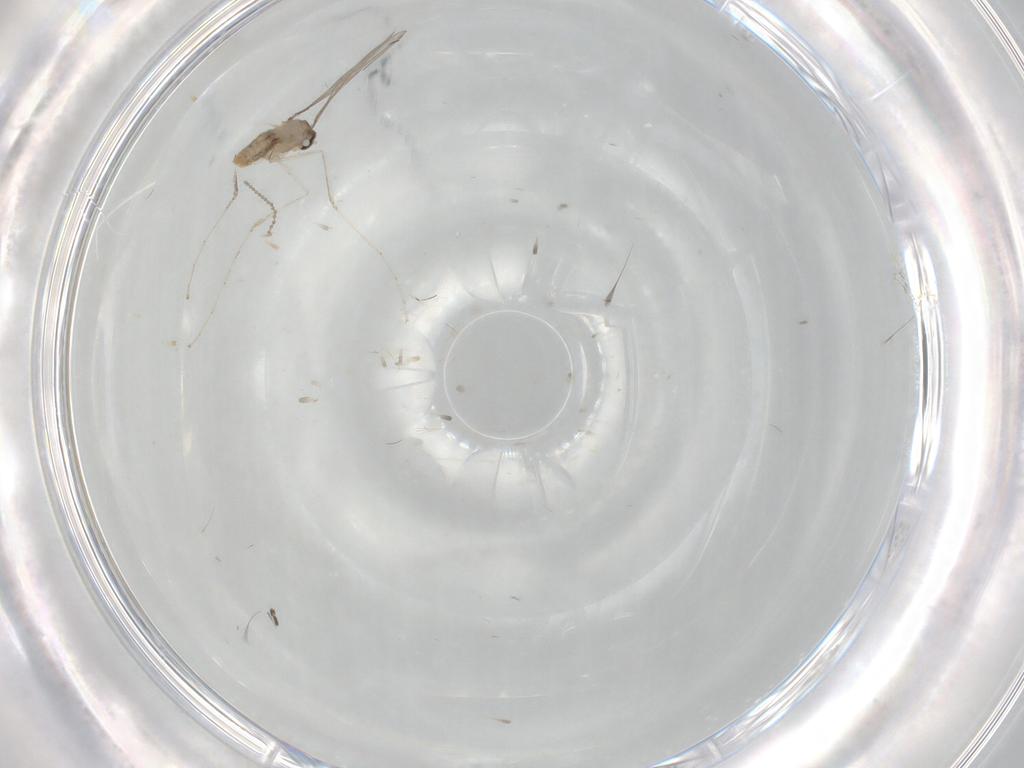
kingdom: Animalia
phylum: Arthropoda
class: Insecta
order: Diptera
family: Cecidomyiidae
